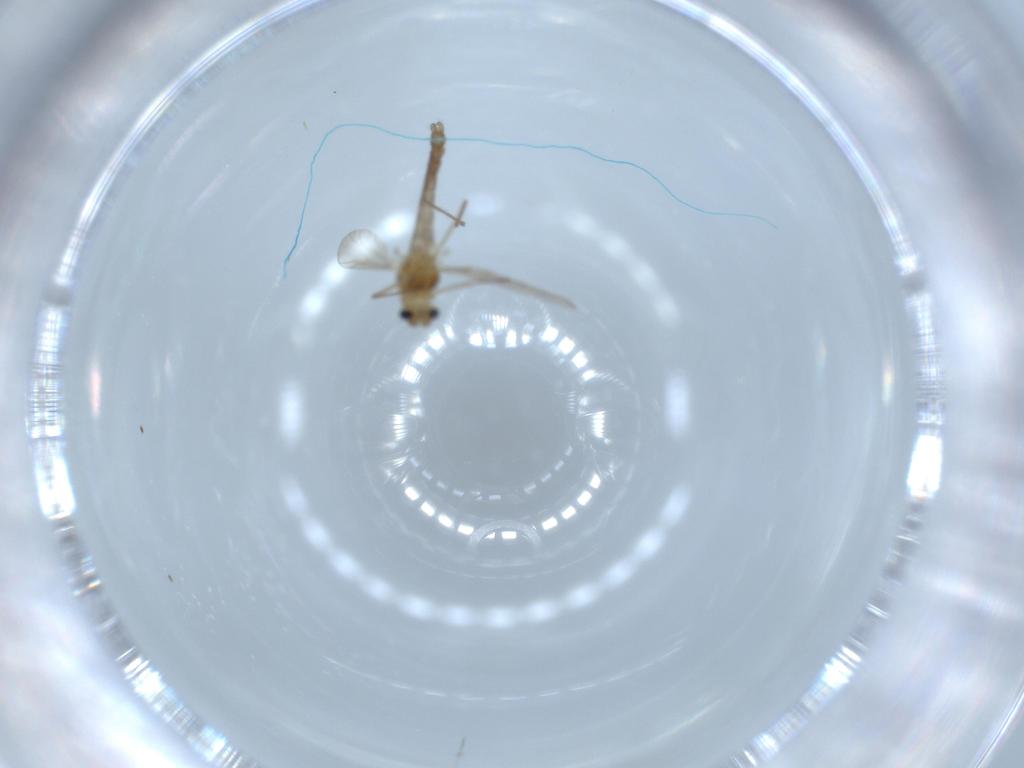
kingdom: Animalia
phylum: Arthropoda
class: Insecta
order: Diptera
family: Chironomidae
